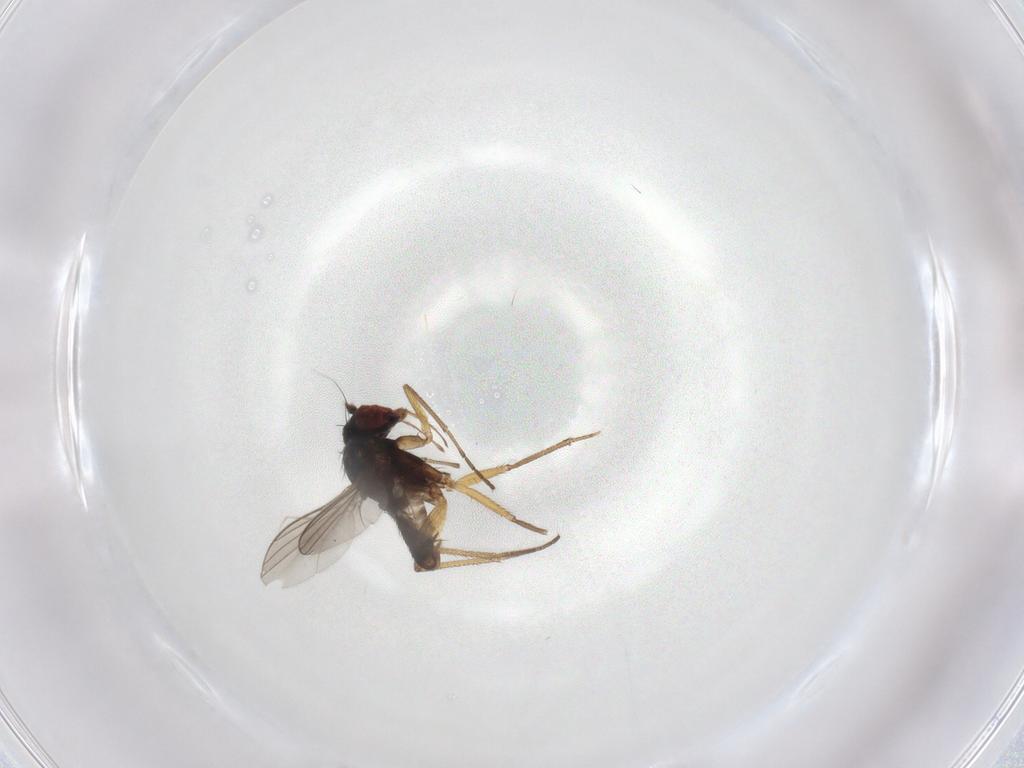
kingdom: Animalia
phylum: Arthropoda
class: Insecta
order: Diptera
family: Dolichopodidae
